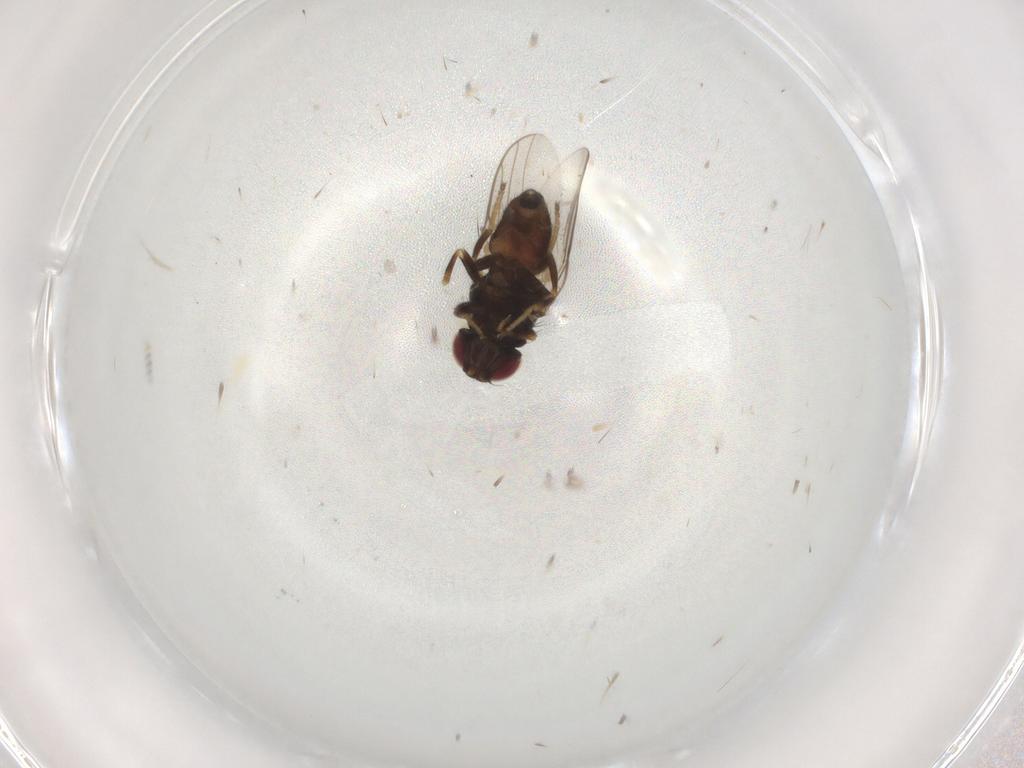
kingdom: Animalia
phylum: Arthropoda
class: Insecta
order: Diptera
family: Chloropidae
